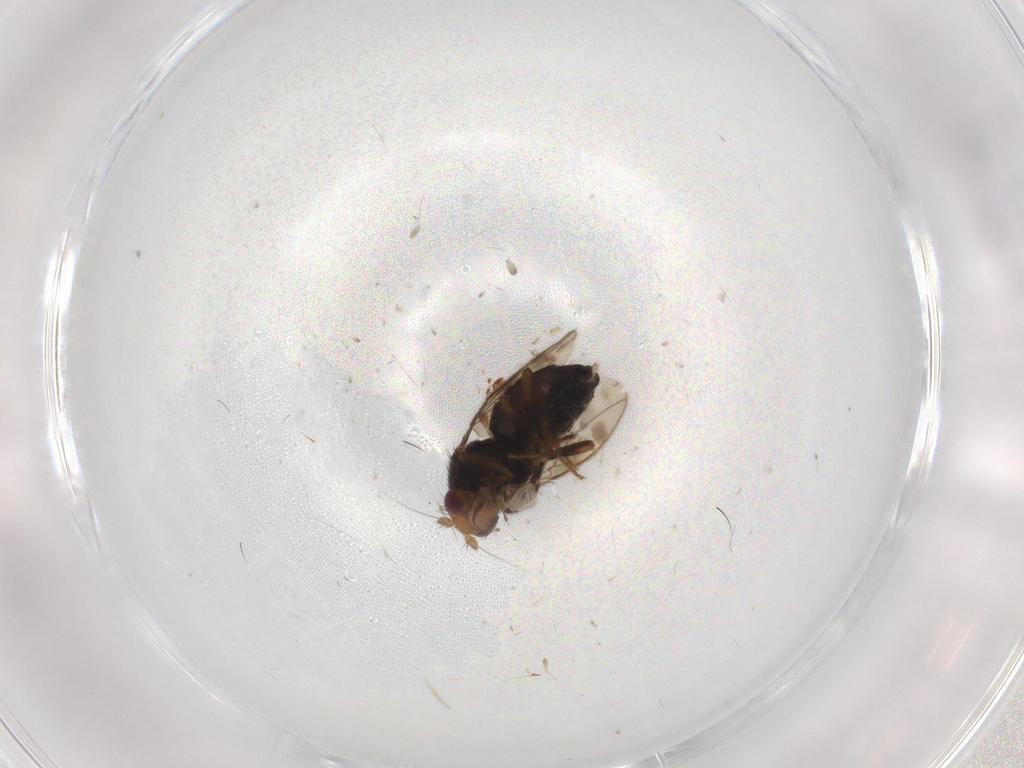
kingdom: Animalia
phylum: Arthropoda
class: Insecta
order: Diptera
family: Sphaeroceridae
